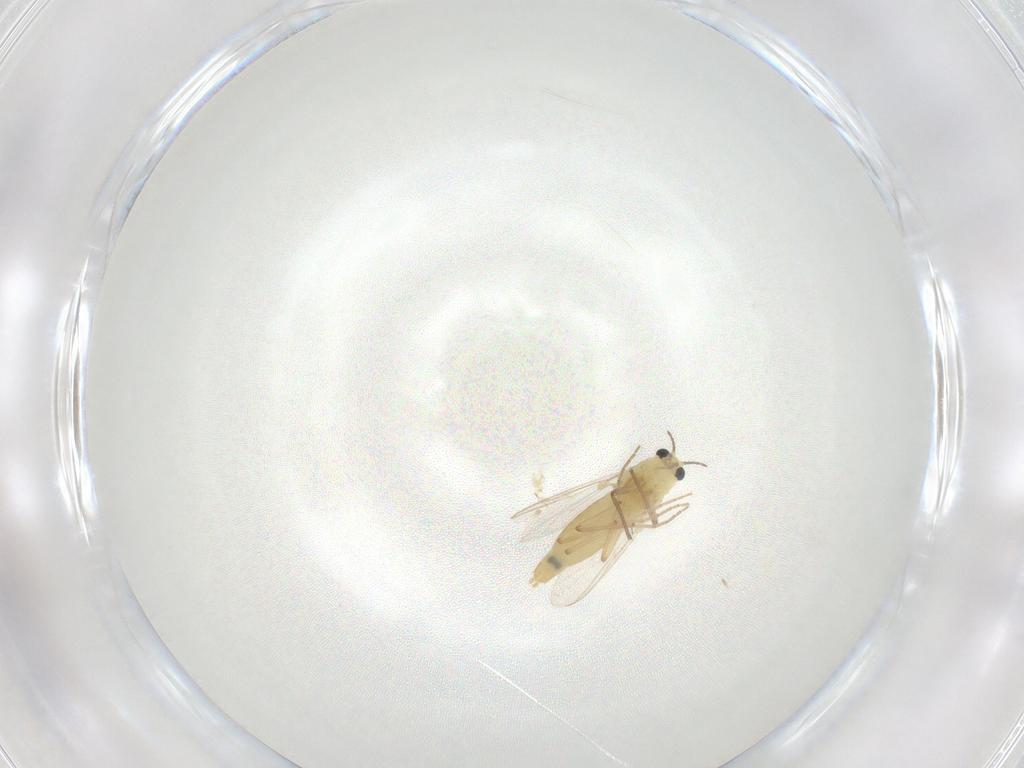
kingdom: Animalia
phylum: Arthropoda
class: Insecta
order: Diptera
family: Chironomidae
